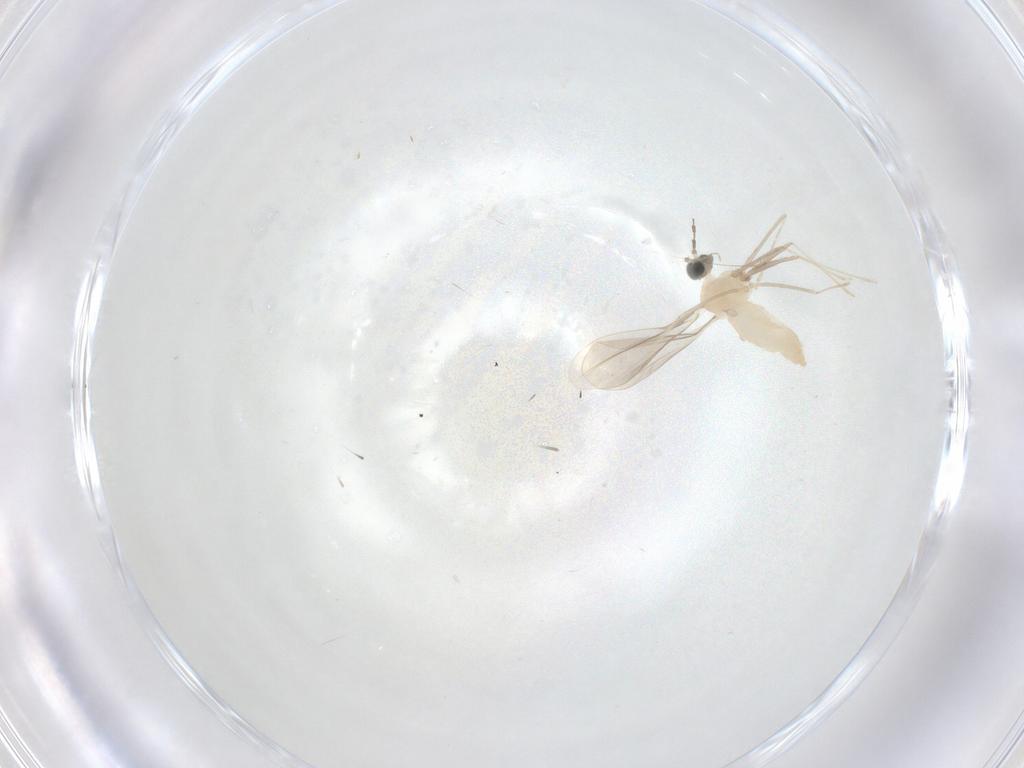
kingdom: Animalia
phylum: Arthropoda
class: Insecta
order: Diptera
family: Cecidomyiidae
